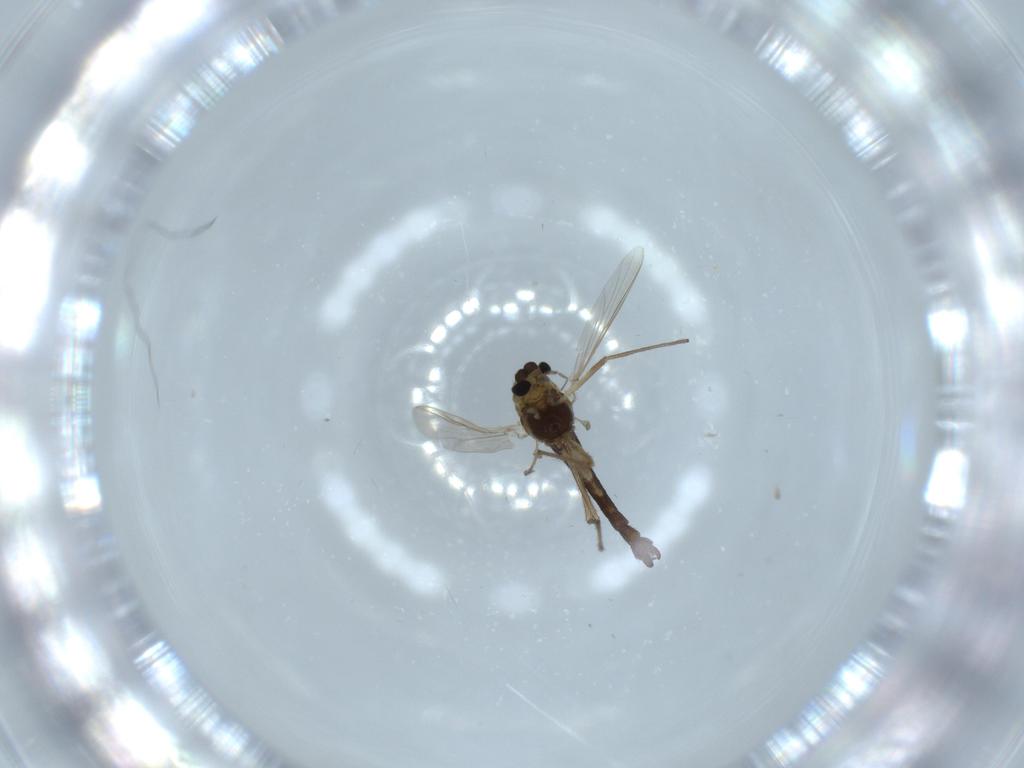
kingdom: Animalia
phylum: Arthropoda
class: Insecta
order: Diptera
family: Chironomidae
